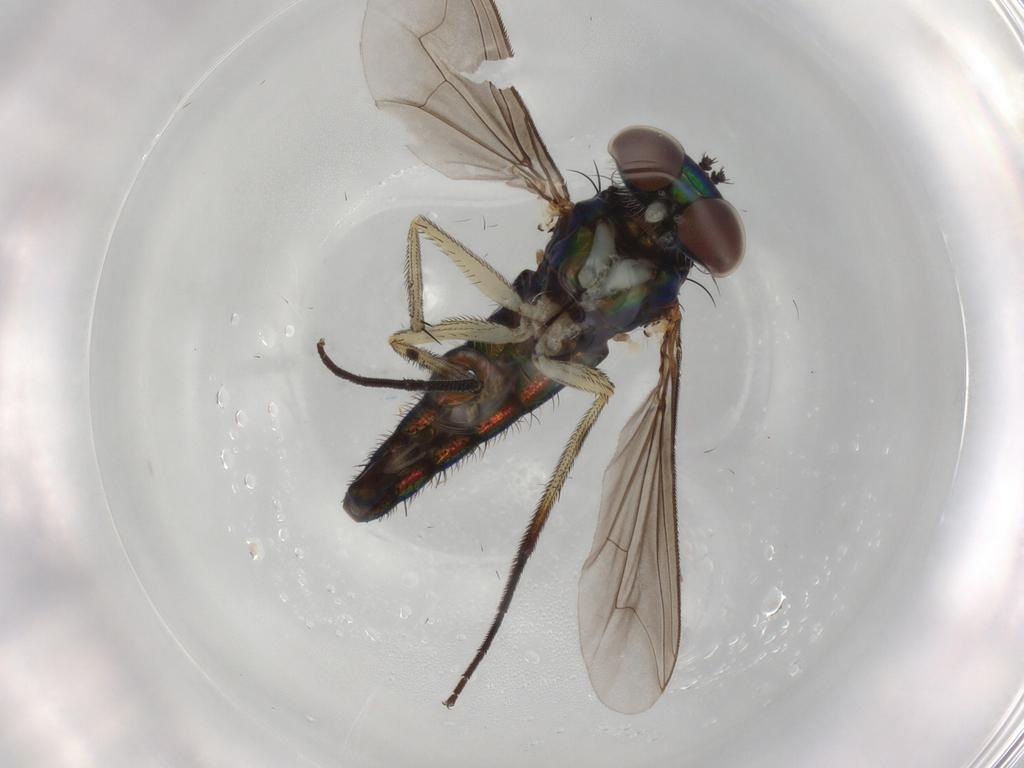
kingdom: Animalia
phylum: Arthropoda
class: Insecta
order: Diptera
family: Dolichopodidae
